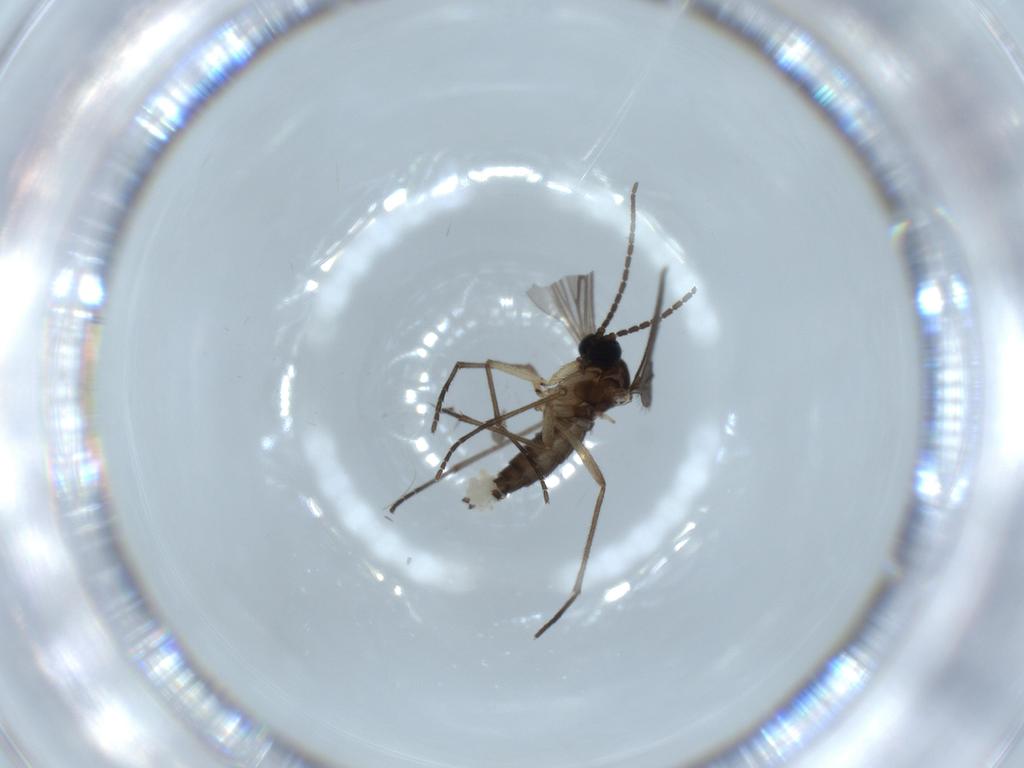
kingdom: Animalia
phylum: Arthropoda
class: Insecta
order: Diptera
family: Sciaridae
